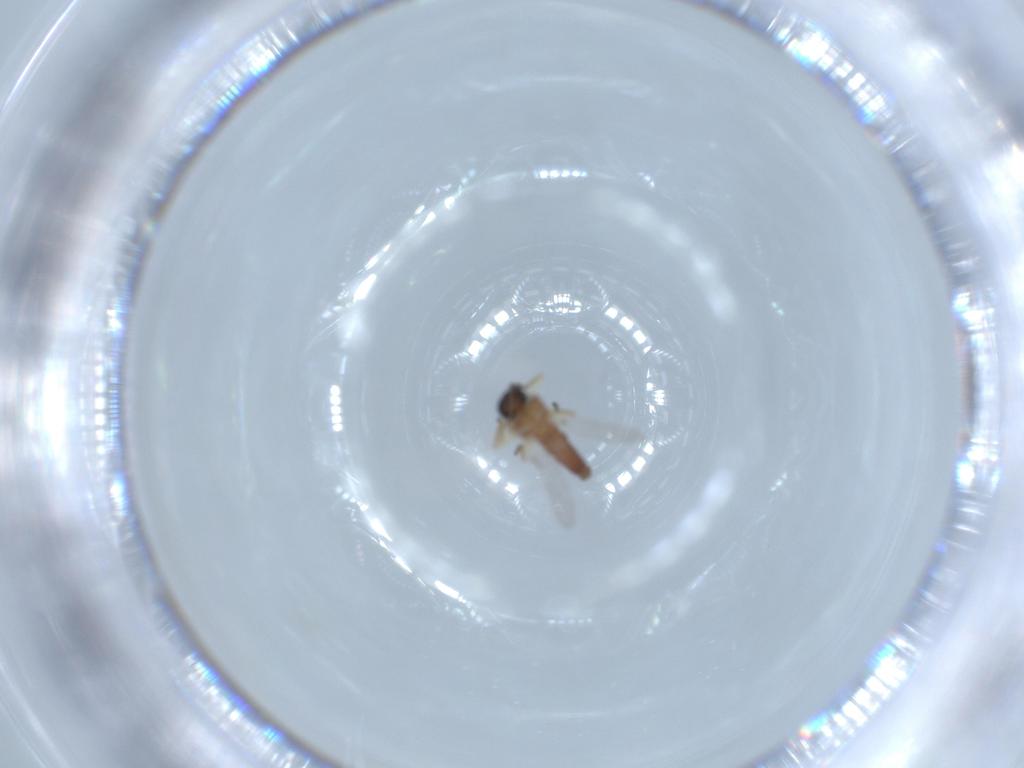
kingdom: Animalia
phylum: Arthropoda
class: Insecta
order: Diptera
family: Ceratopogonidae
